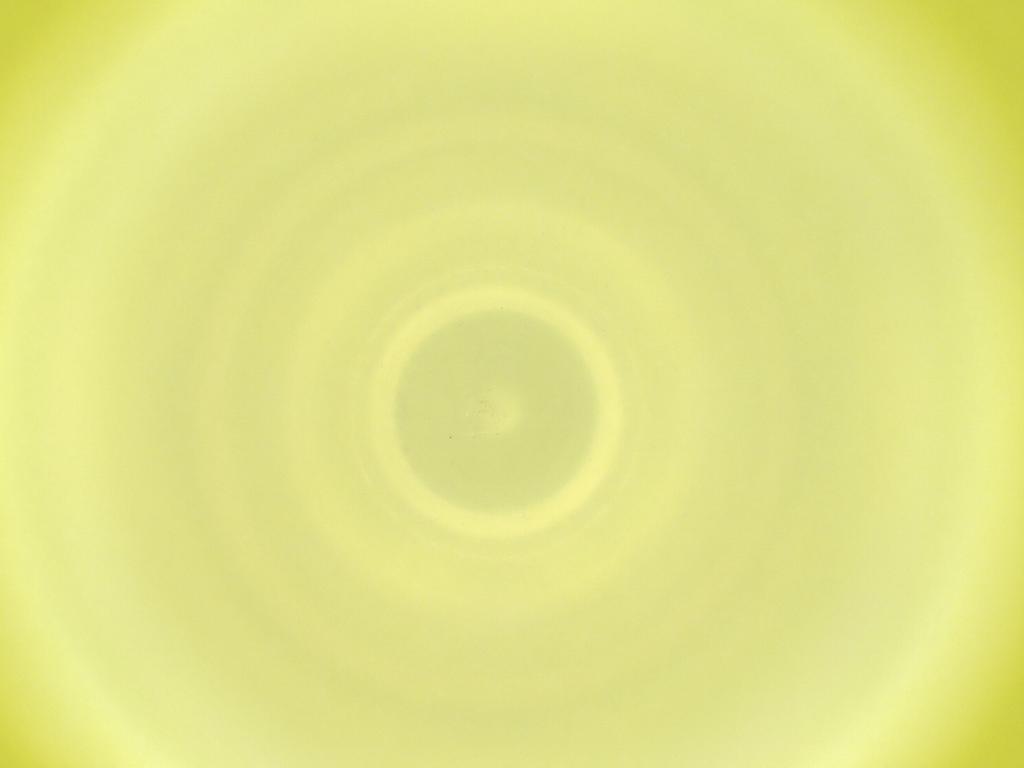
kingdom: Animalia
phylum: Arthropoda
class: Insecta
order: Diptera
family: Cecidomyiidae
